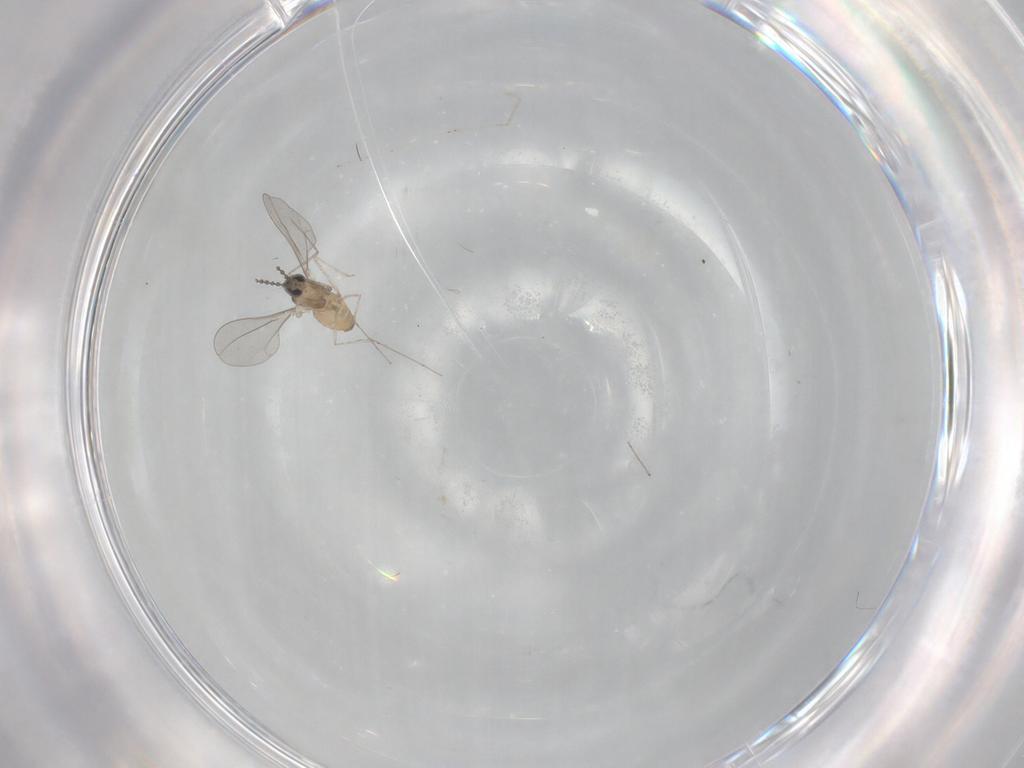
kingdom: Animalia
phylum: Arthropoda
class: Insecta
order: Diptera
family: Cecidomyiidae
